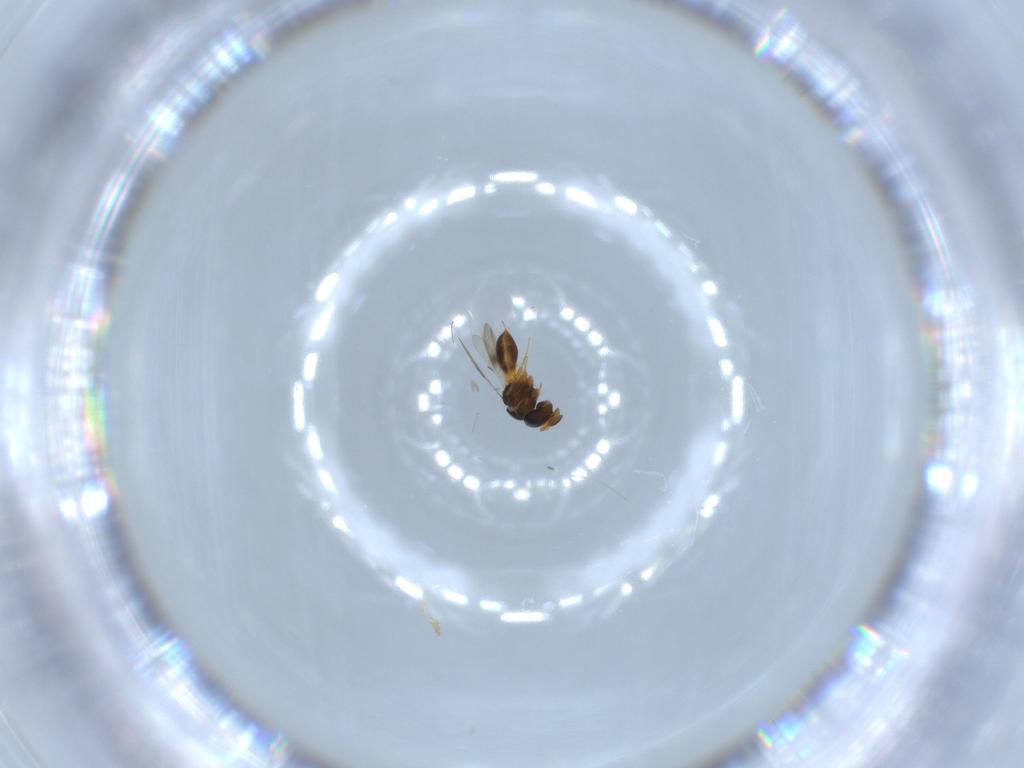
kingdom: Animalia
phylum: Arthropoda
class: Insecta
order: Hymenoptera
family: Scelionidae
